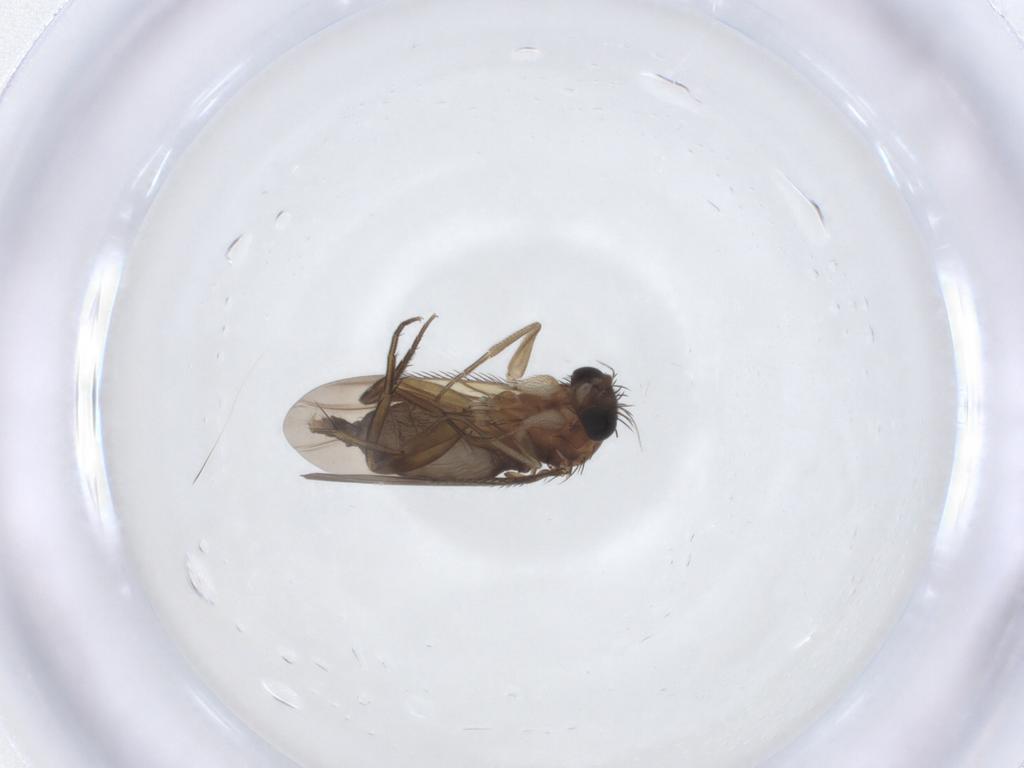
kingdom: Animalia
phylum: Arthropoda
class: Insecta
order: Diptera
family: Phoridae
